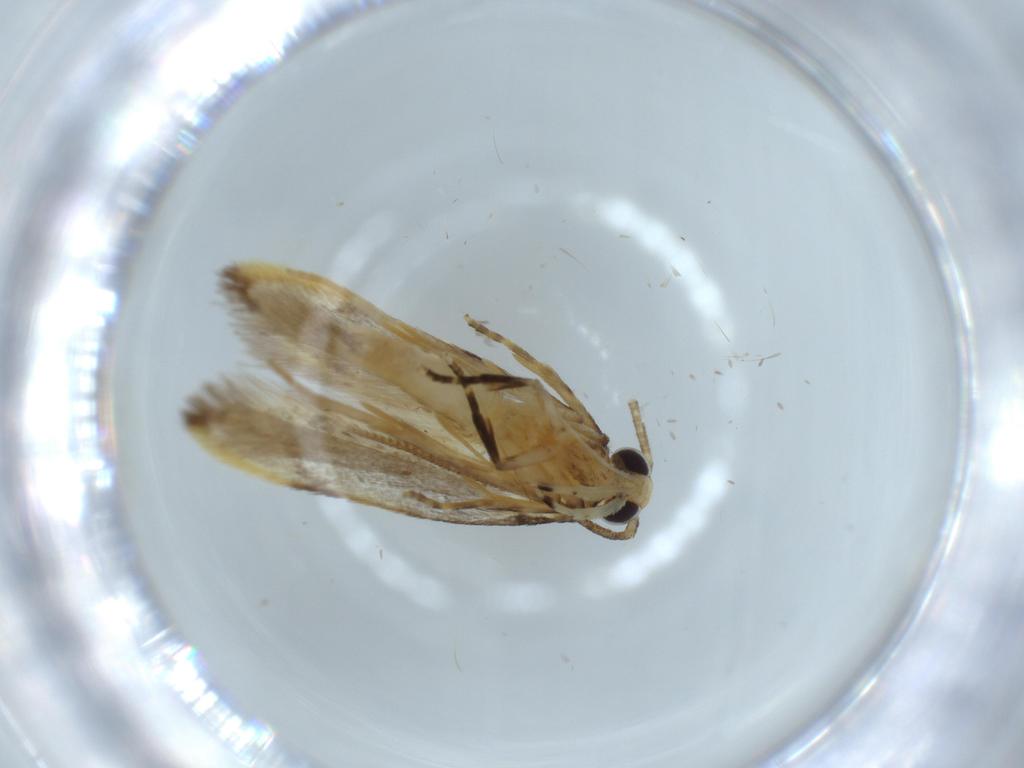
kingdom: Animalia
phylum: Arthropoda
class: Insecta
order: Lepidoptera
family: Autostichidae
